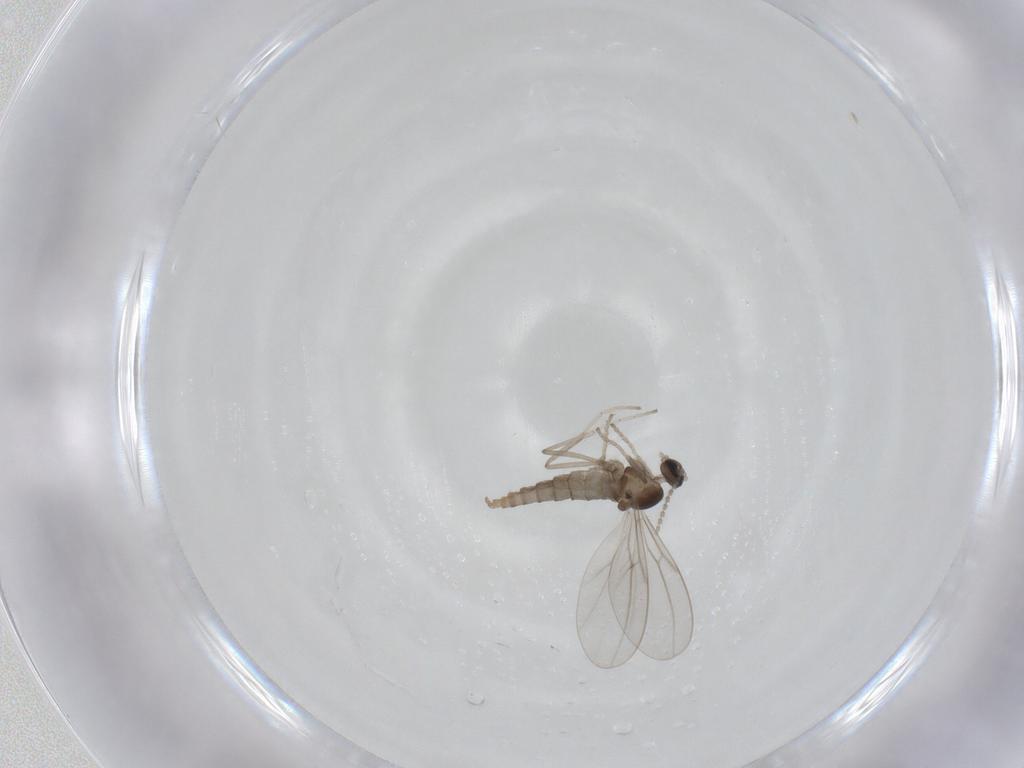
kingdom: Animalia
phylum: Arthropoda
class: Insecta
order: Diptera
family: Cecidomyiidae
